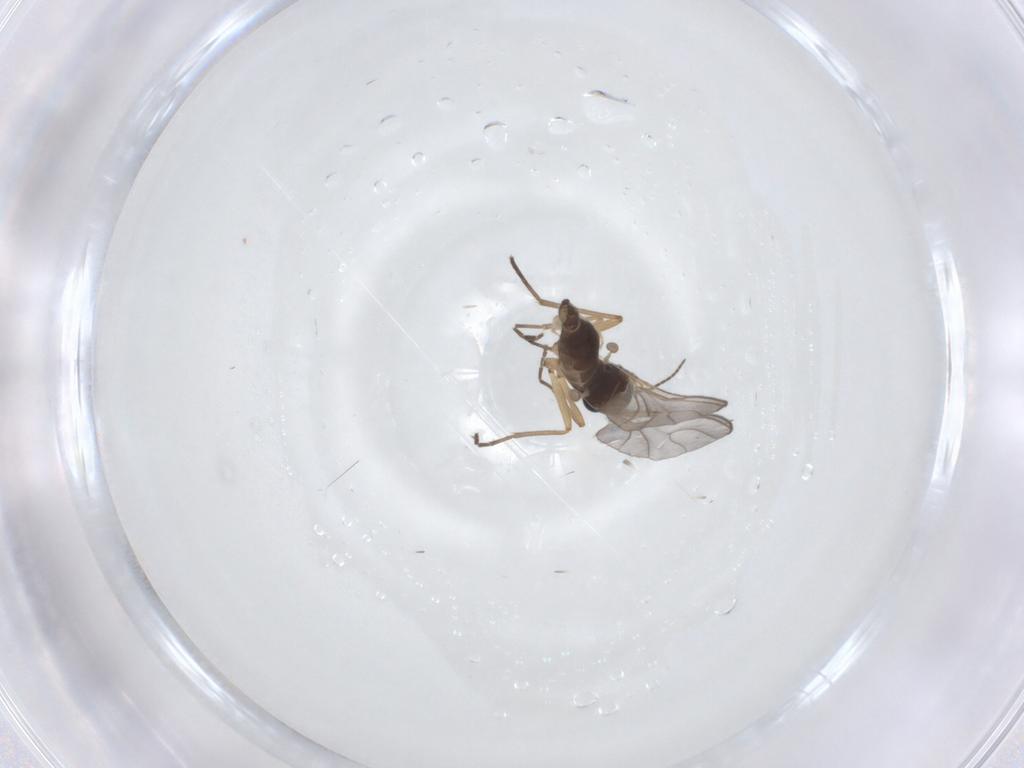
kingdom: Animalia
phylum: Arthropoda
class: Insecta
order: Diptera
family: Sciaridae
